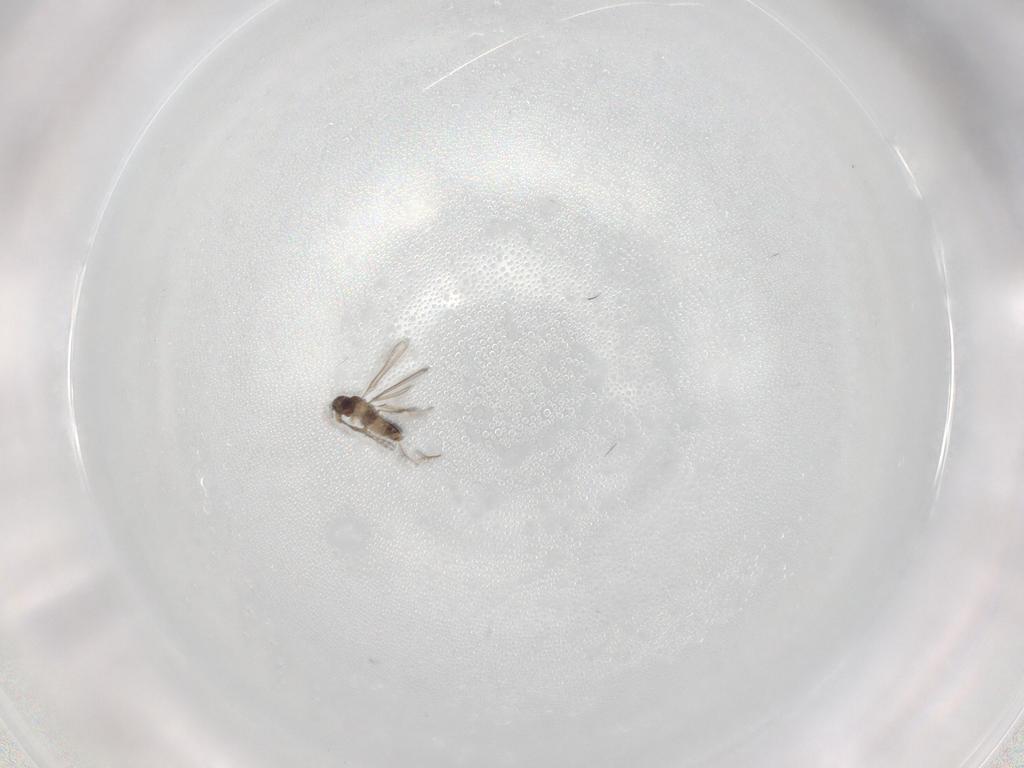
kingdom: Animalia
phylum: Arthropoda
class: Insecta
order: Hymenoptera
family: Mymaridae
